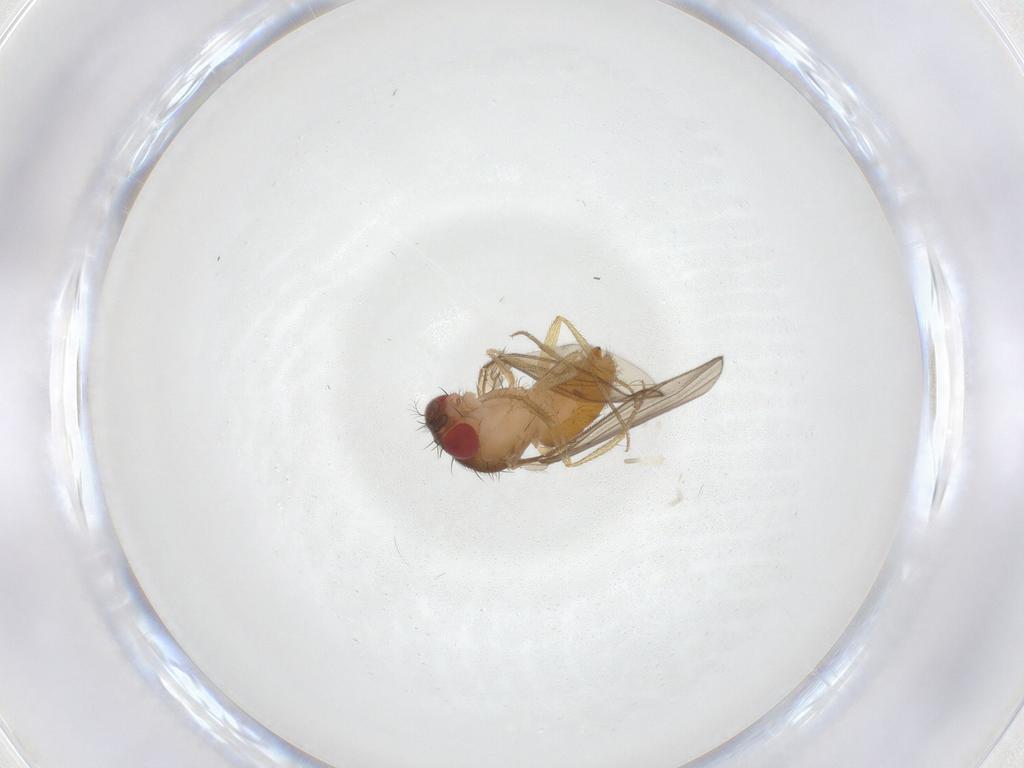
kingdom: Animalia
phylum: Arthropoda
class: Insecta
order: Diptera
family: Drosophilidae
